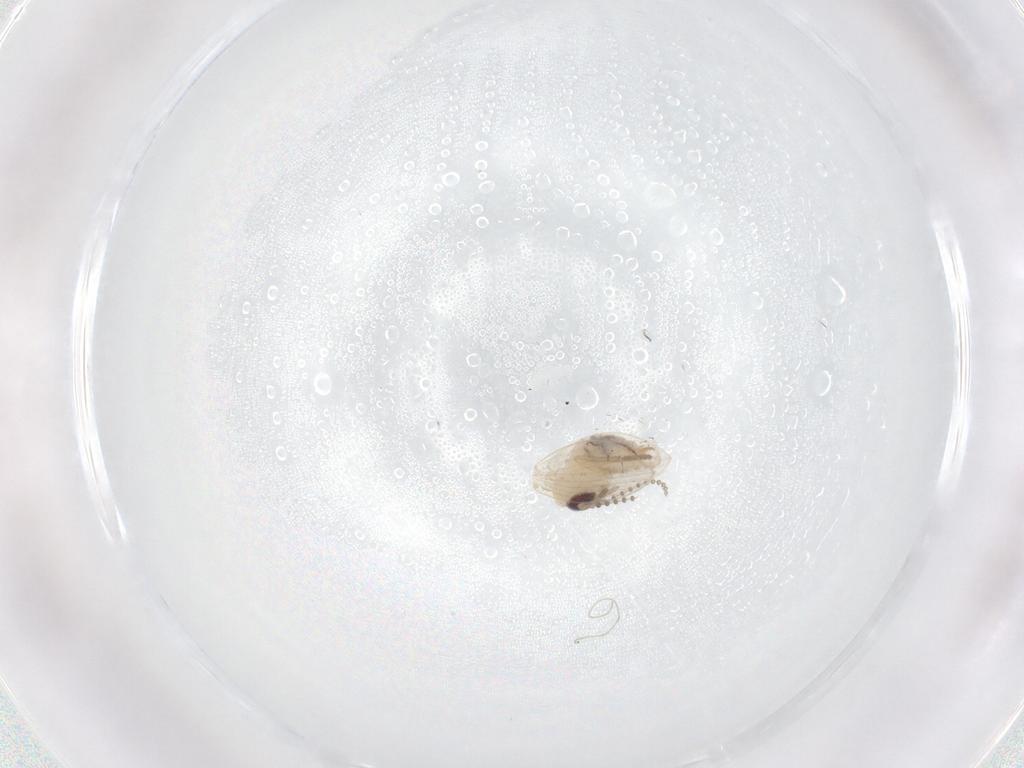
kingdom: Animalia
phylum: Arthropoda
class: Insecta
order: Diptera
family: Psychodidae
